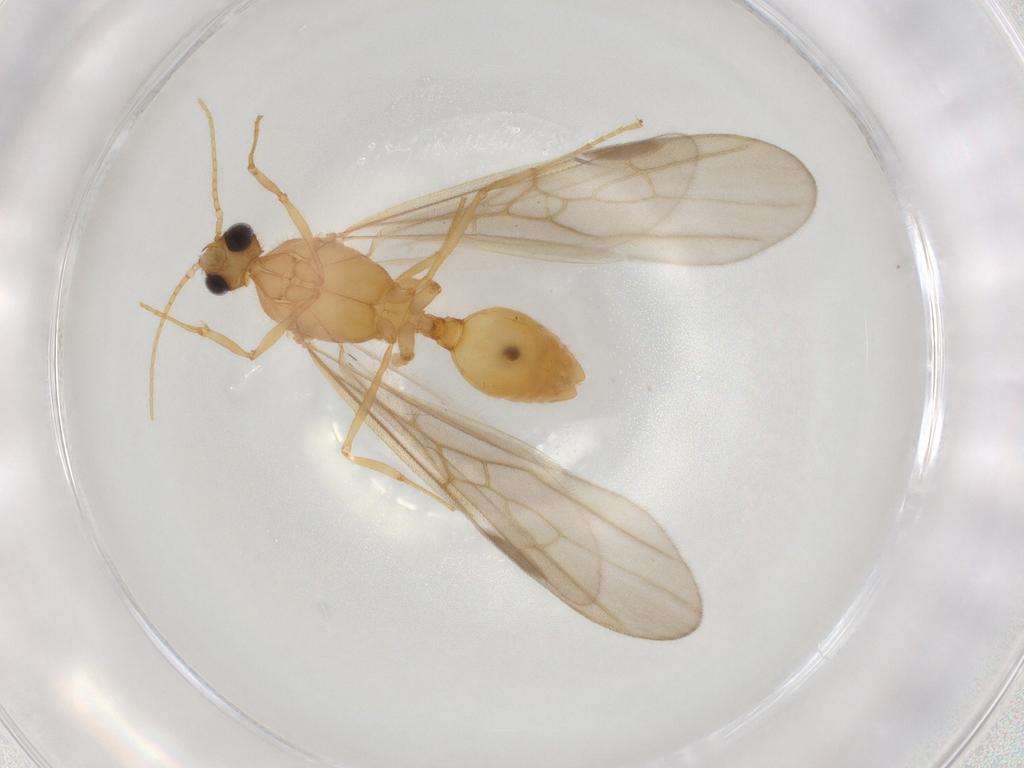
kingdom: Animalia
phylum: Arthropoda
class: Insecta
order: Hymenoptera
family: Formicidae
